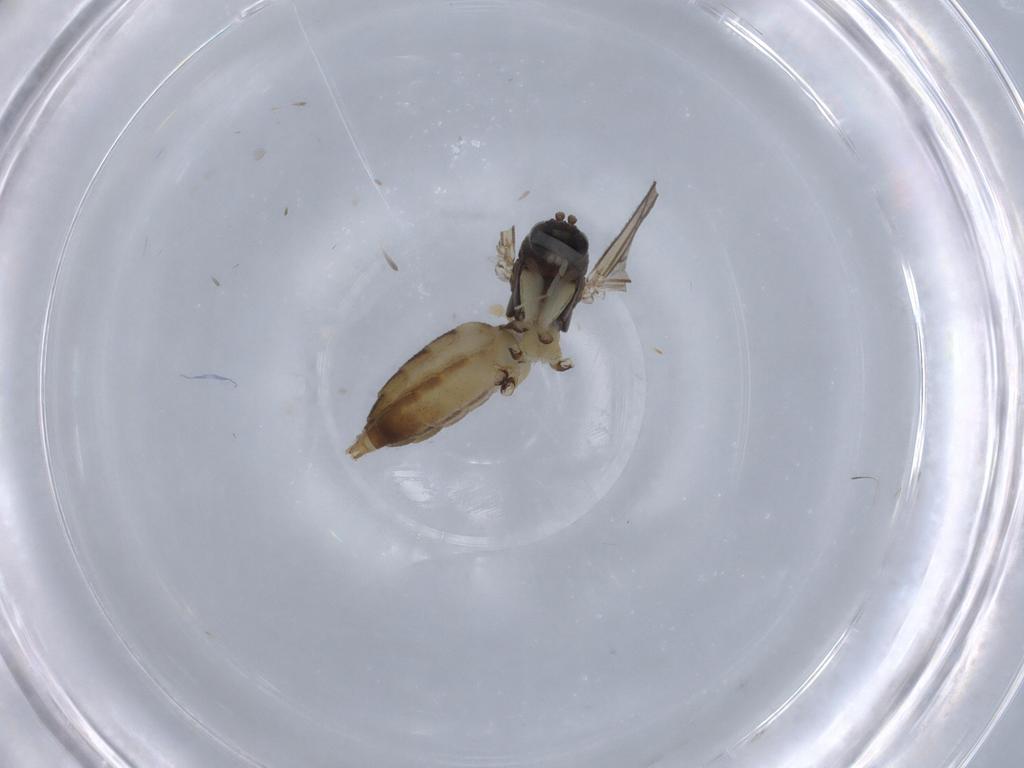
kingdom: Animalia
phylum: Arthropoda
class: Insecta
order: Diptera
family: Mycetophilidae
